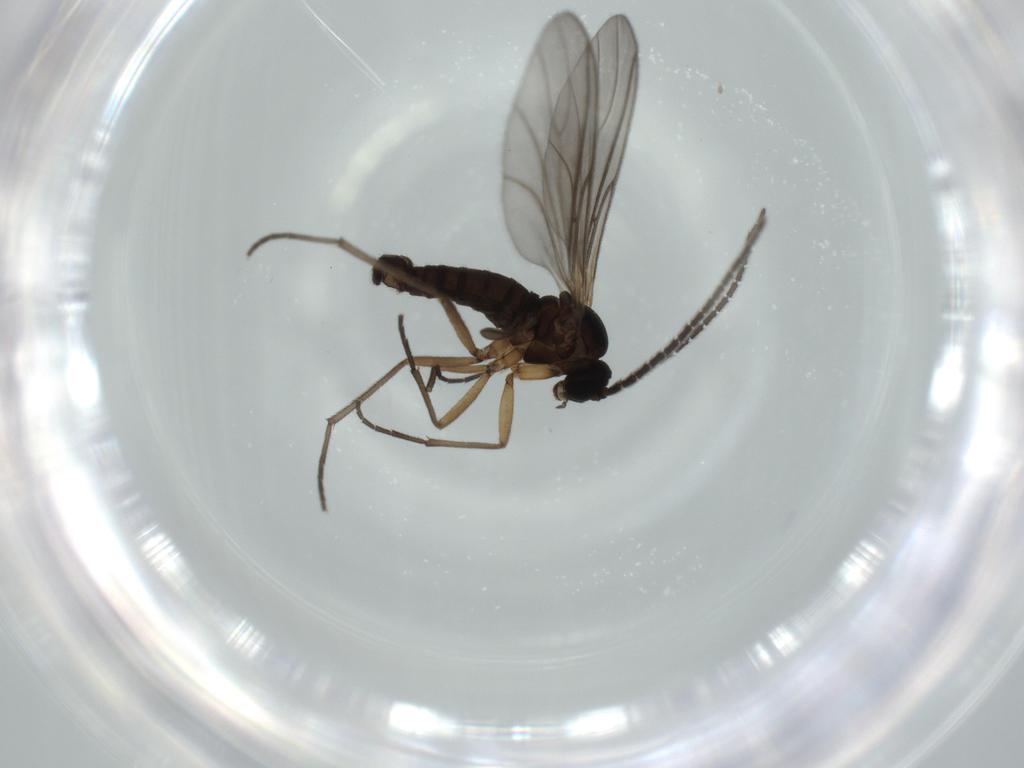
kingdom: Animalia
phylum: Arthropoda
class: Insecta
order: Diptera
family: Sciaridae
